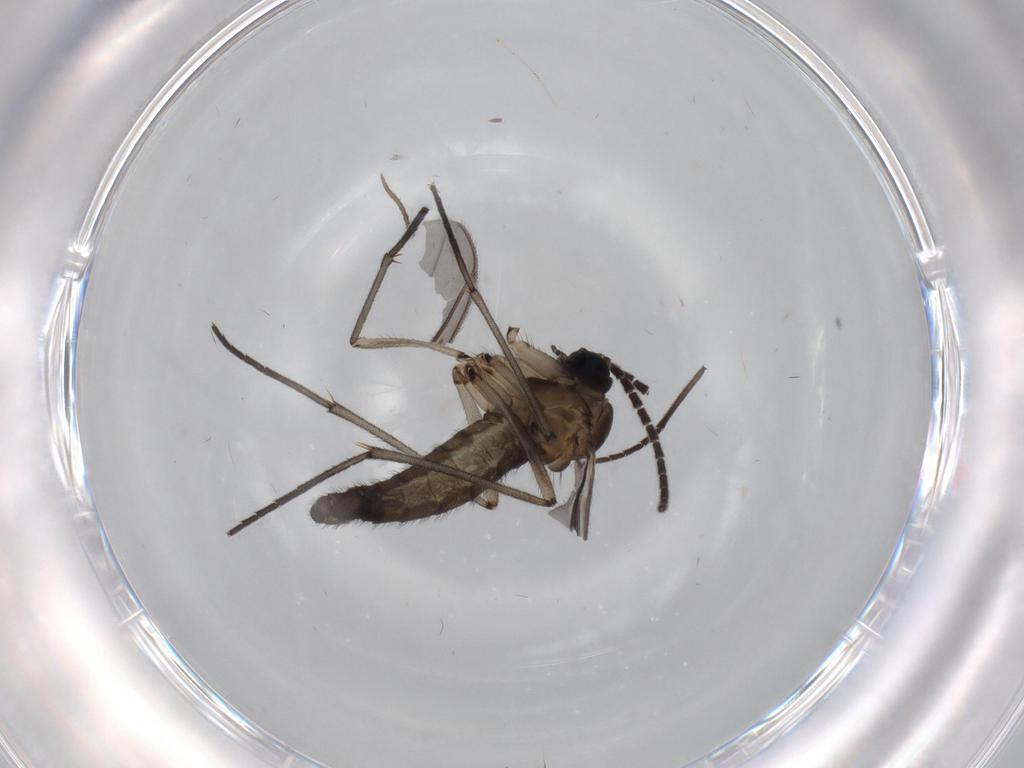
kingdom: Animalia
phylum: Arthropoda
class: Insecta
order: Diptera
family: Sciaridae
